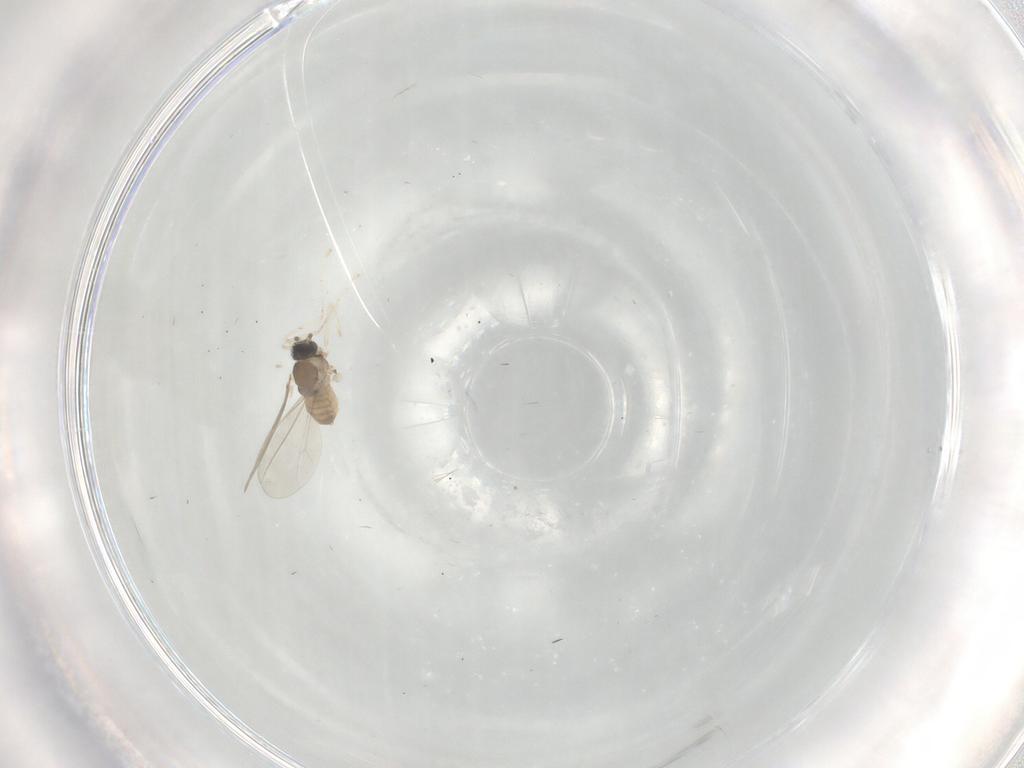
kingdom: Animalia
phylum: Arthropoda
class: Insecta
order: Diptera
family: Cecidomyiidae
